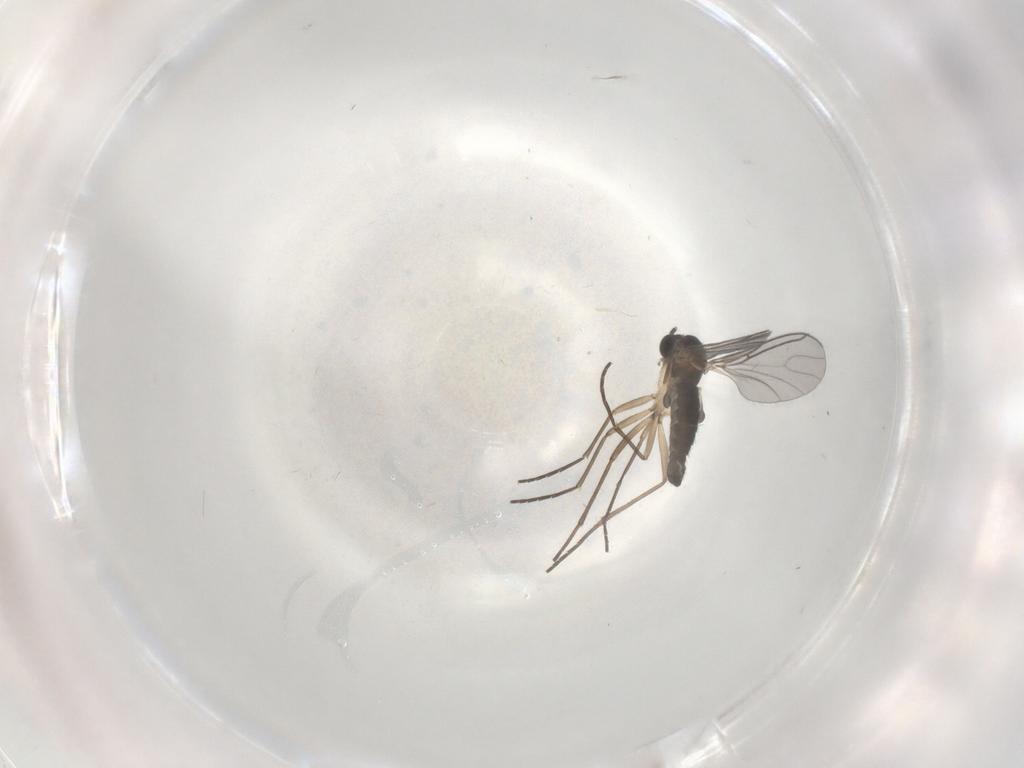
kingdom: Animalia
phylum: Arthropoda
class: Insecta
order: Diptera
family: Sciaridae
